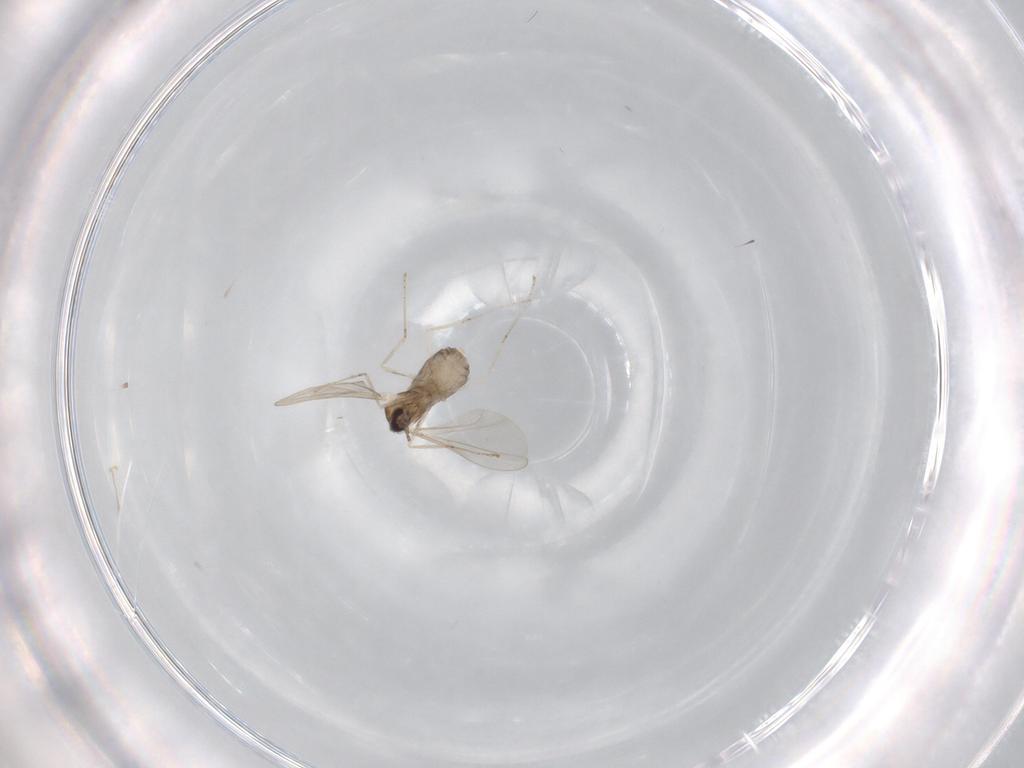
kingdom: Animalia
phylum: Arthropoda
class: Insecta
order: Diptera
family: Cecidomyiidae
